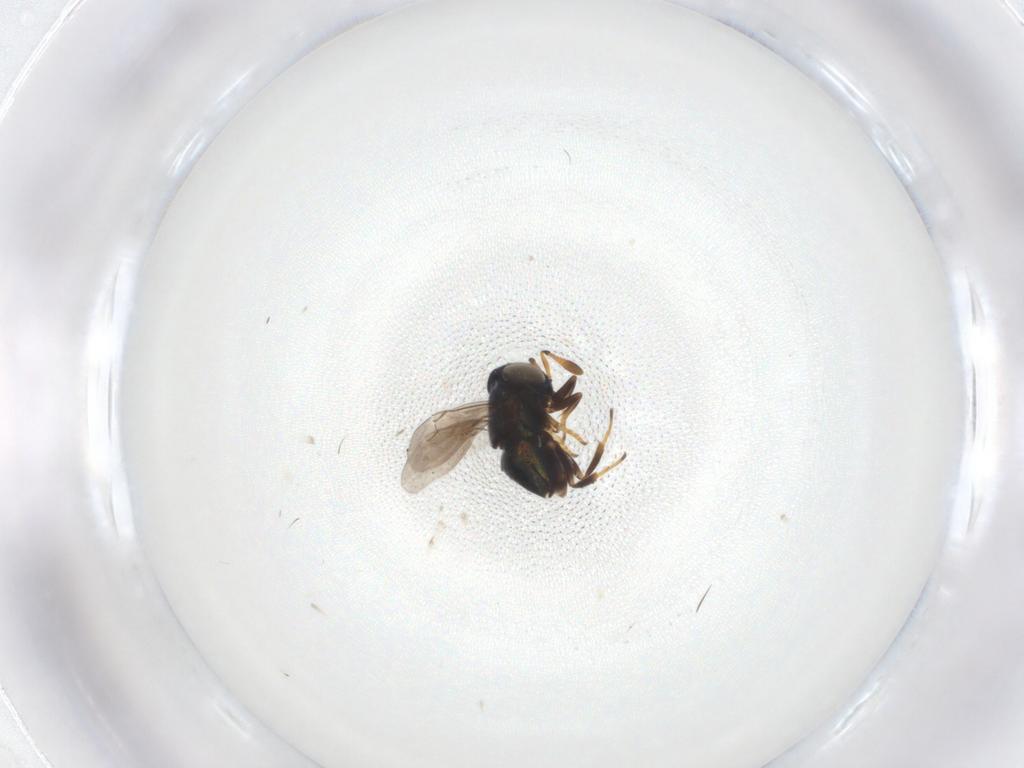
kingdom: Animalia
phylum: Arthropoda
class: Insecta
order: Hymenoptera
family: Encyrtidae
